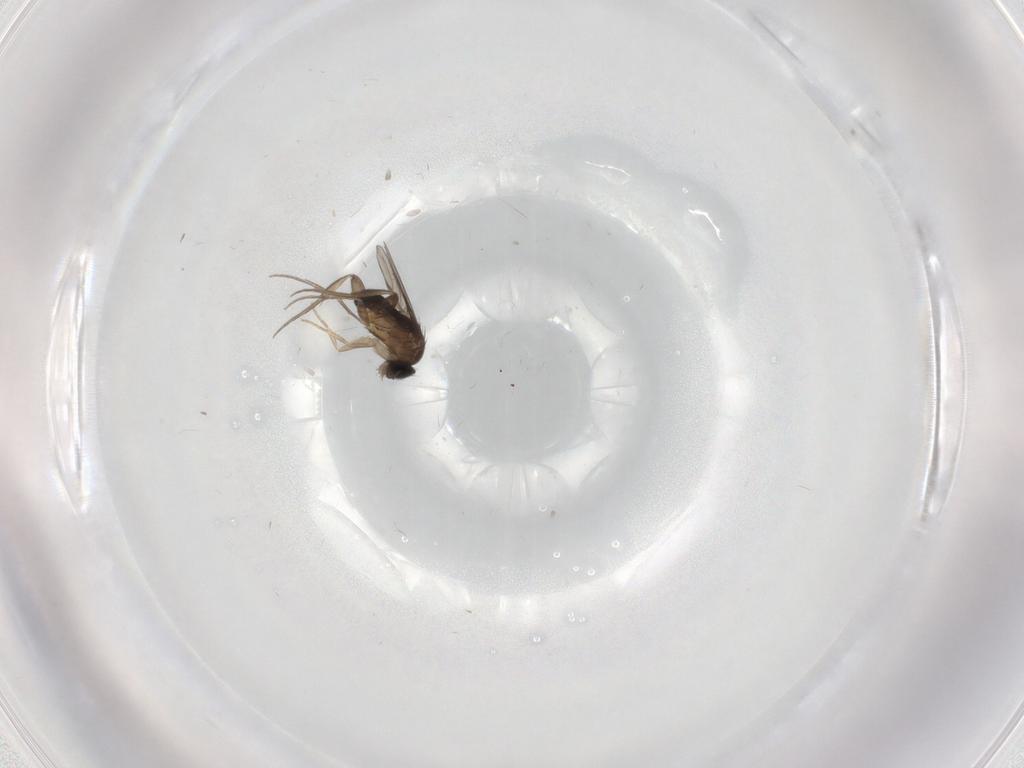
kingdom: Animalia
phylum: Arthropoda
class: Insecta
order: Diptera
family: Phoridae
